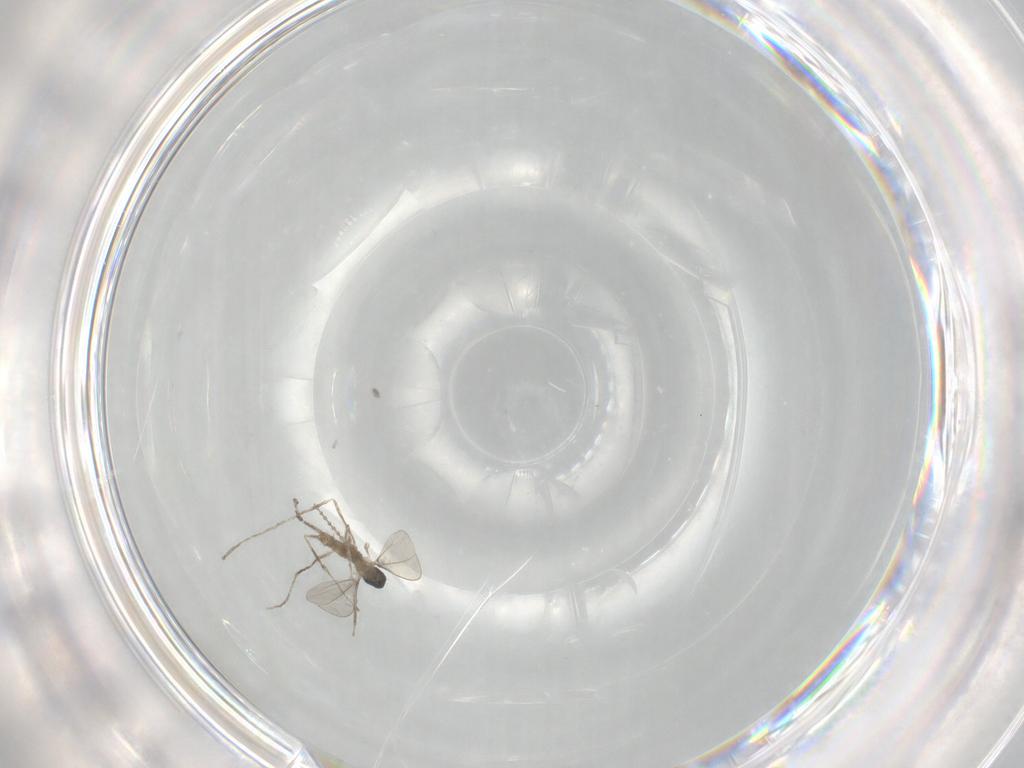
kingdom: Animalia
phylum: Arthropoda
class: Insecta
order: Diptera
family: Cecidomyiidae
